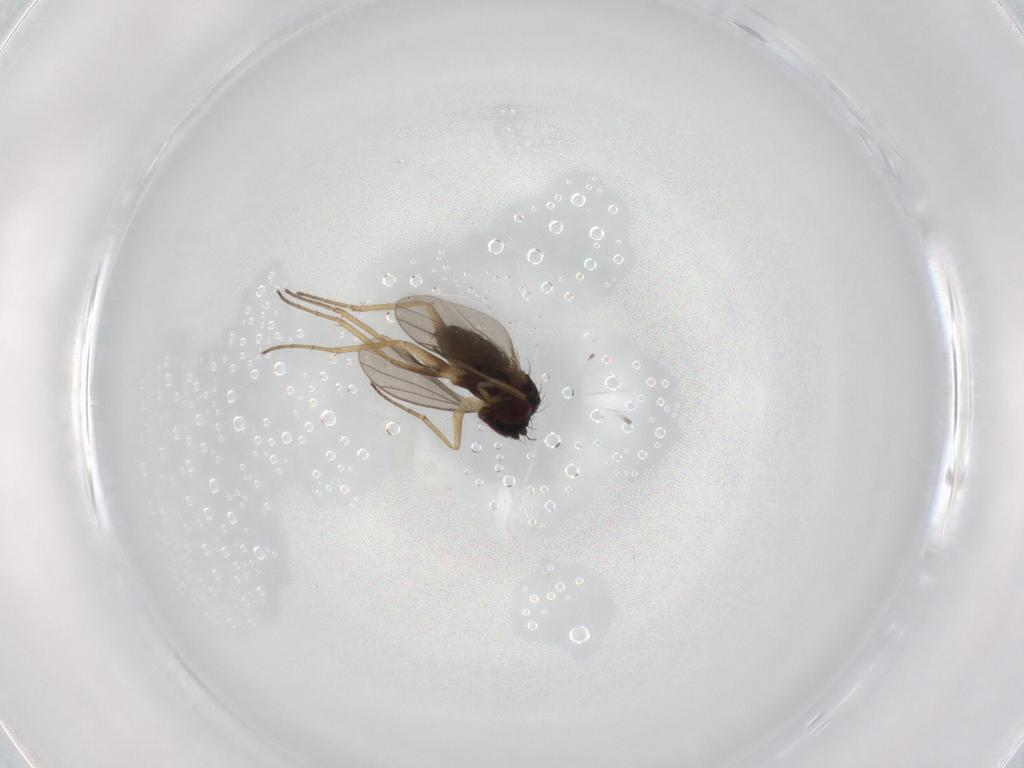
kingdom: Animalia
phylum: Arthropoda
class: Insecta
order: Diptera
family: Dolichopodidae
